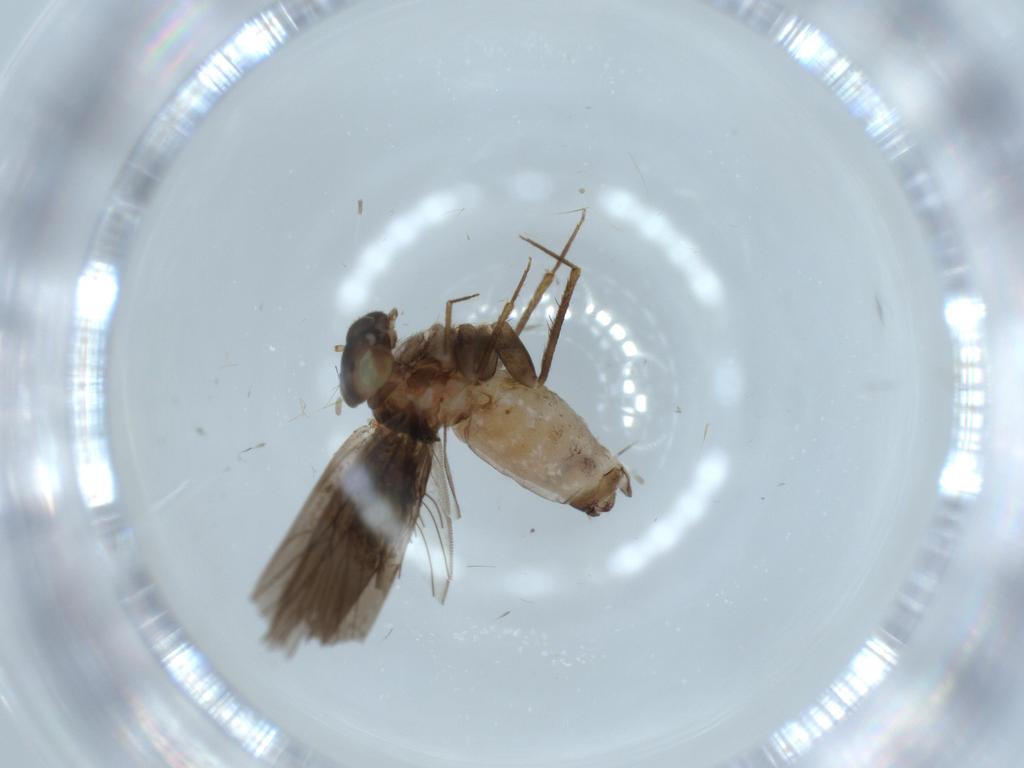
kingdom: Animalia
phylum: Arthropoda
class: Insecta
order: Psocodea
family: Lepidopsocidae
